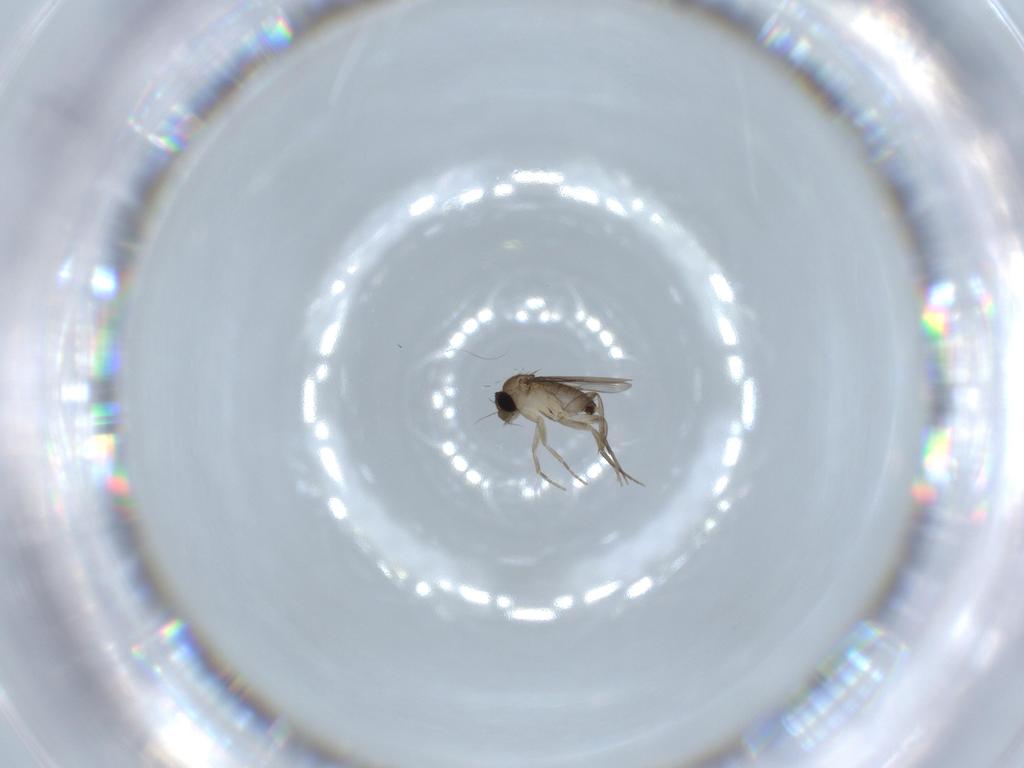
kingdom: Animalia
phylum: Arthropoda
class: Insecta
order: Diptera
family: Phoridae
